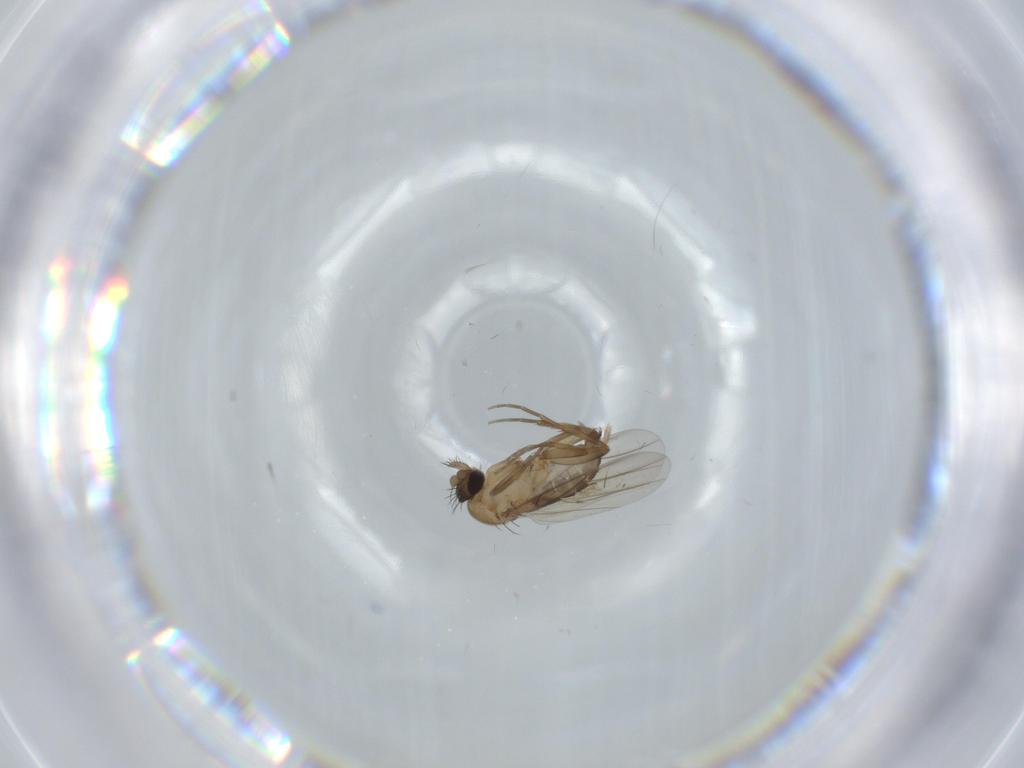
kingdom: Animalia
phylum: Arthropoda
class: Insecta
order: Diptera
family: Phoridae
